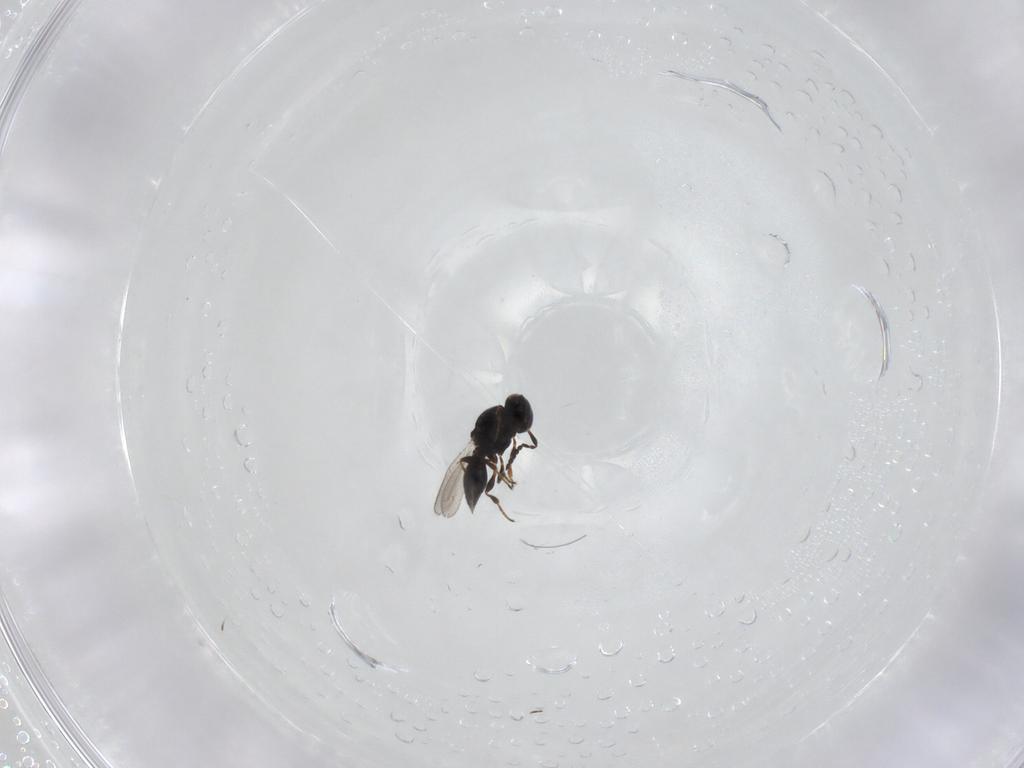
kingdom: Animalia
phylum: Arthropoda
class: Insecta
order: Hymenoptera
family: Platygastridae
